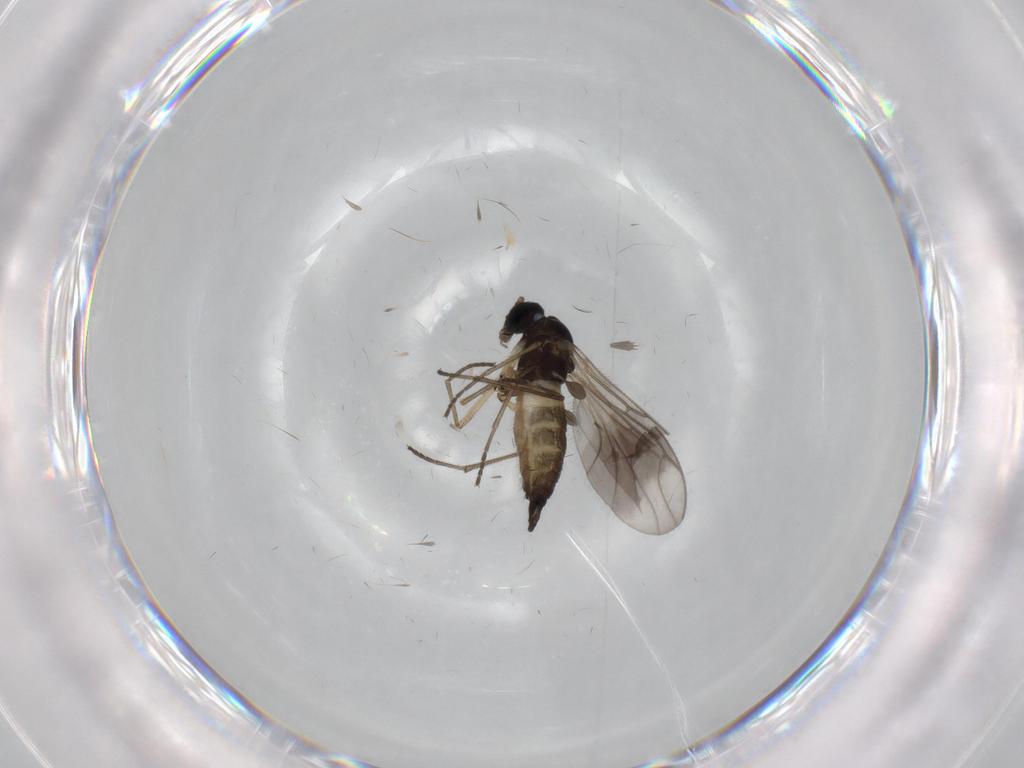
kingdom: Animalia
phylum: Arthropoda
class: Insecta
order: Diptera
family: Sciaridae
